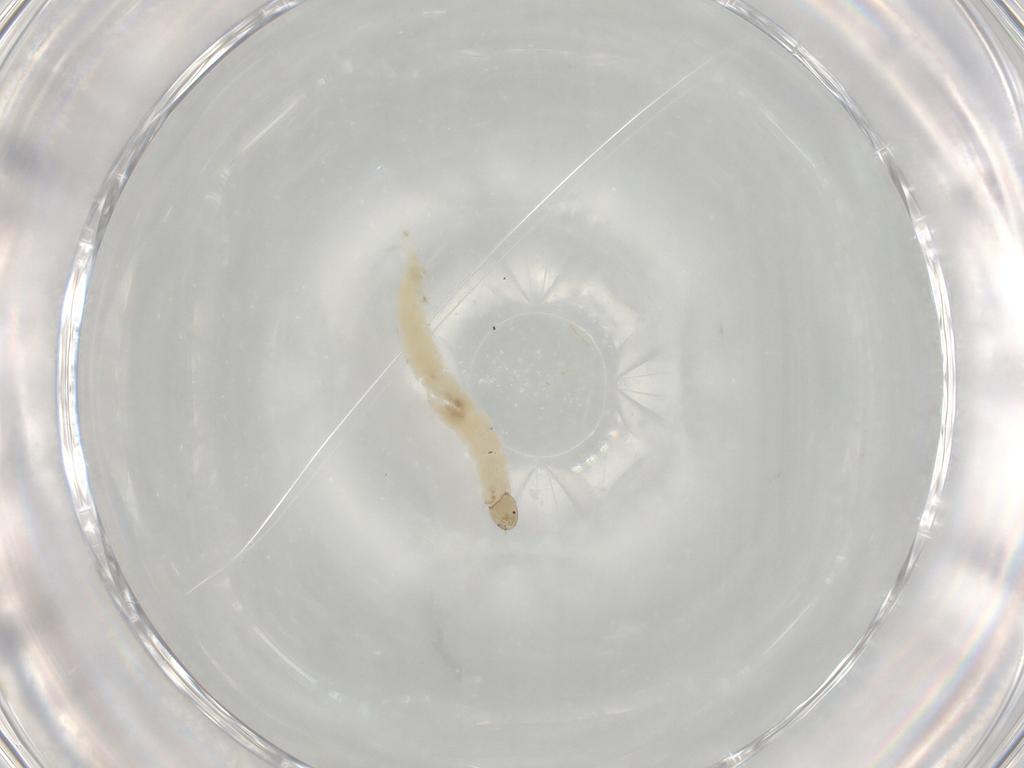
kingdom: Animalia
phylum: Arthropoda
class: Insecta
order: Diptera
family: Chironomidae
